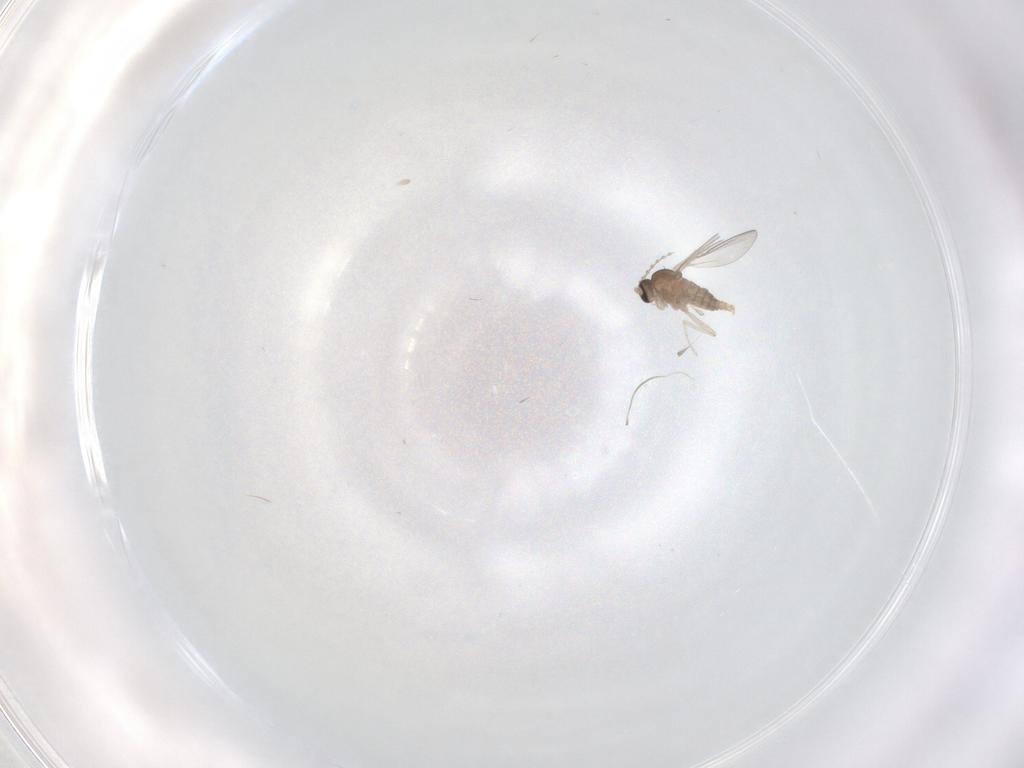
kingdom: Animalia
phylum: Arthropoda
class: Insecta
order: Diptera
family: Cecidomyiidae
